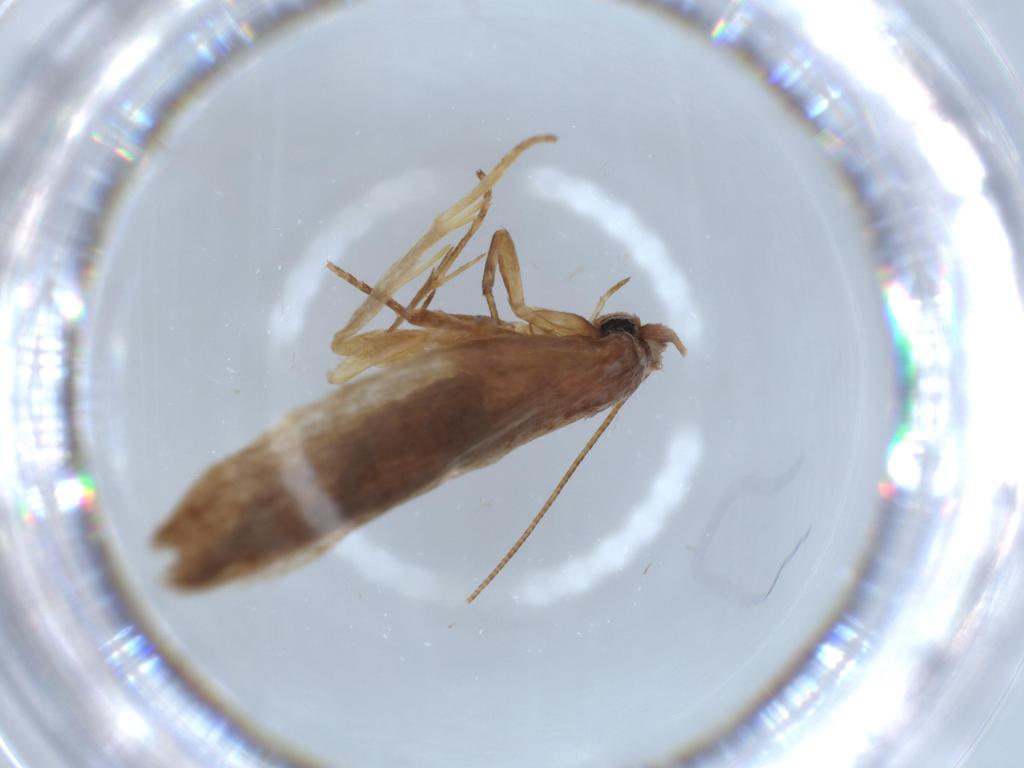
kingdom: Animalia
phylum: Arthropoda
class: Insecta
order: Lepidoptera
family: Roeslerstammiidae
